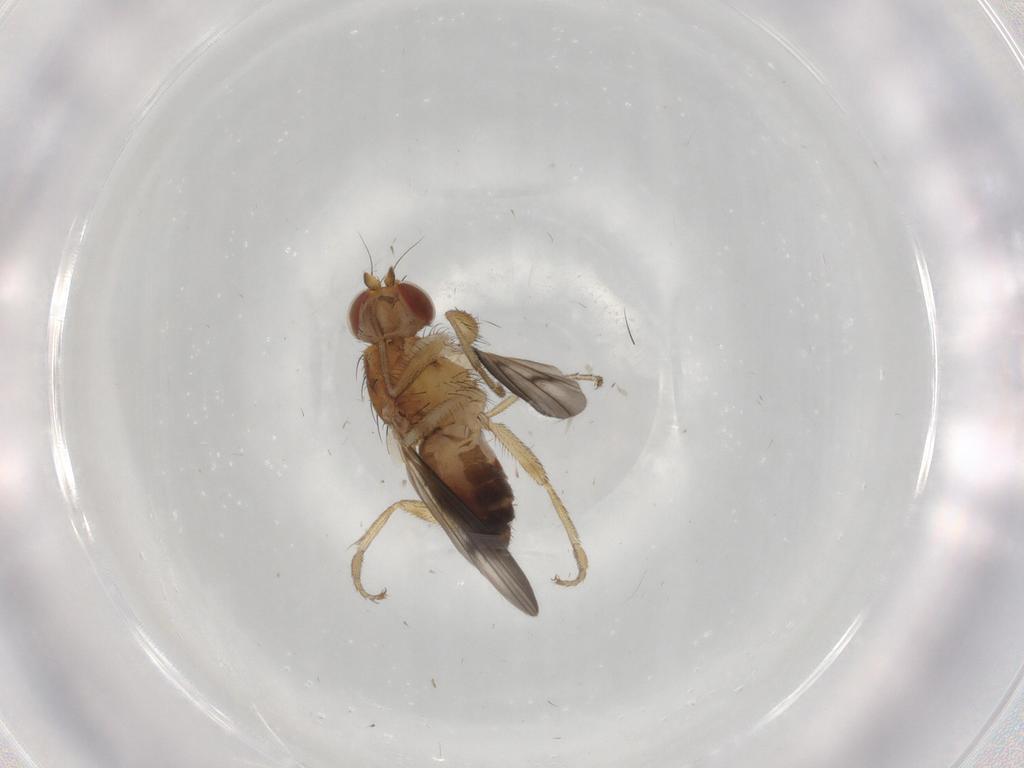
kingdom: Animalia
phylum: Arthropoda
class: Insecta
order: Diptera
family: Heleomyzidae
